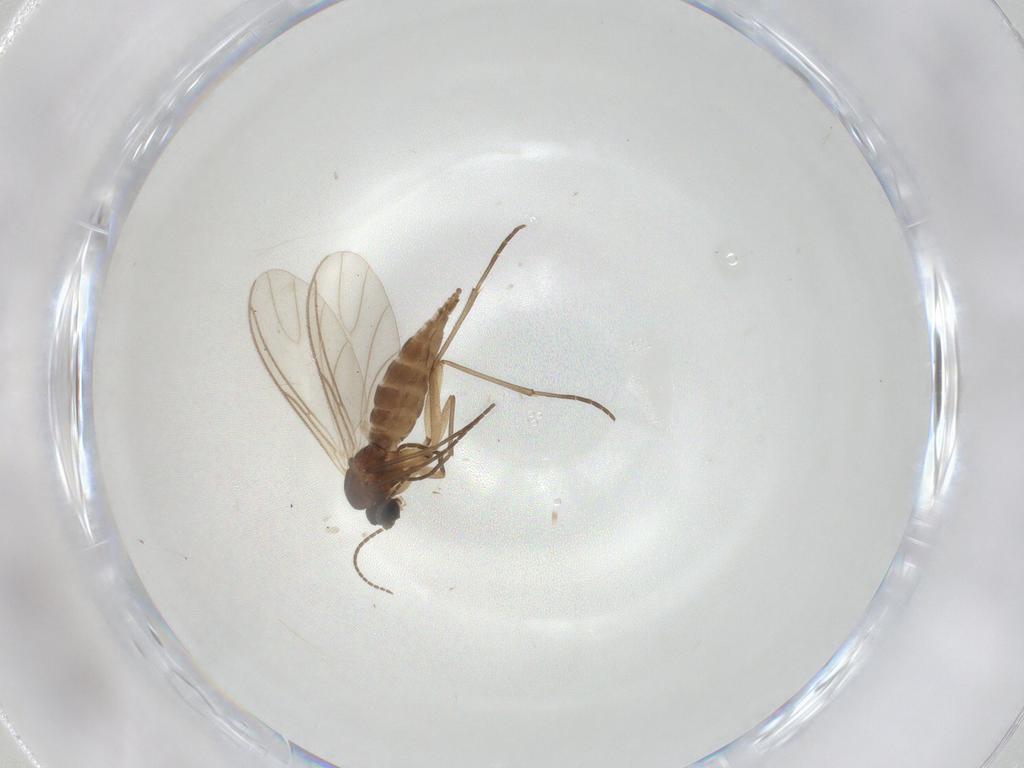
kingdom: Animalia
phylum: Arthropoda
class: Insecta
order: Diptera
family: Sciaridae
